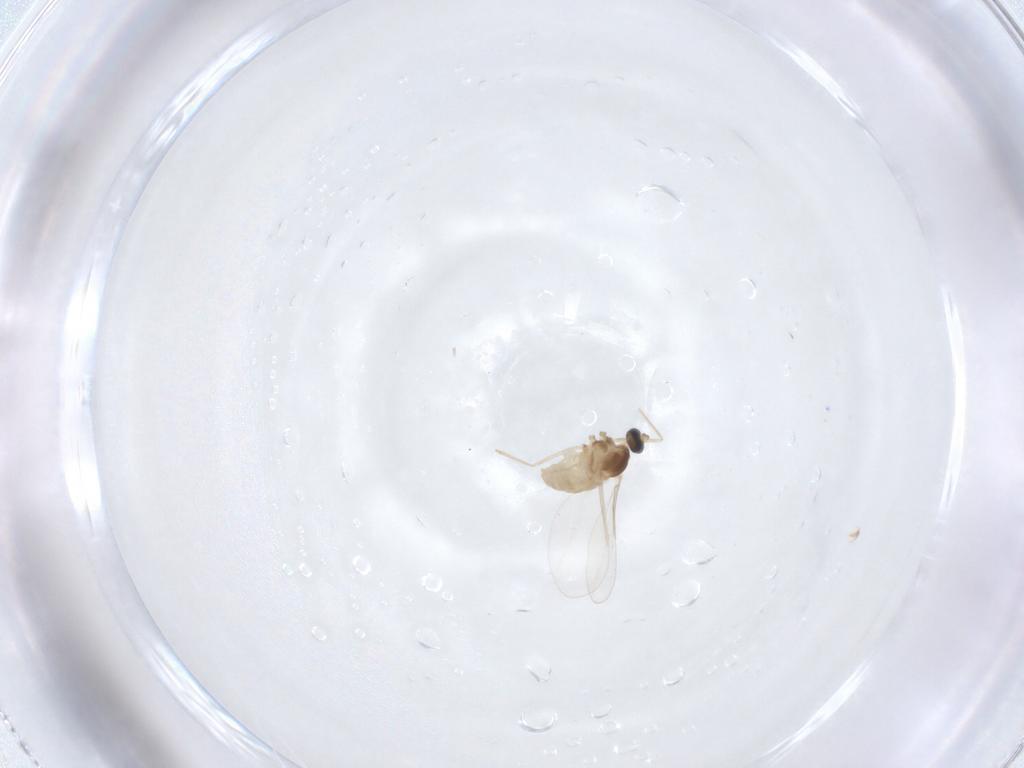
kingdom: Animalia
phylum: Arthropoda
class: Insecta
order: Diptera
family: Cecidomyiidae
